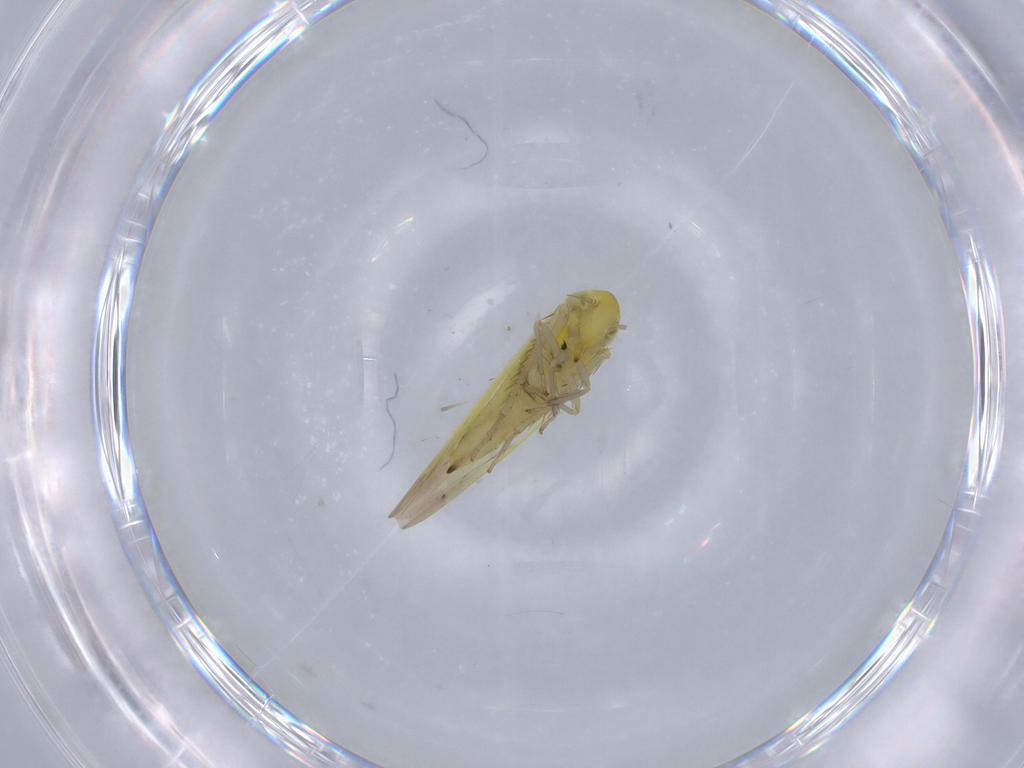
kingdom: Animalia
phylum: Arthropoda
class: Insecta
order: Hemiptera
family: Cicadellidae
